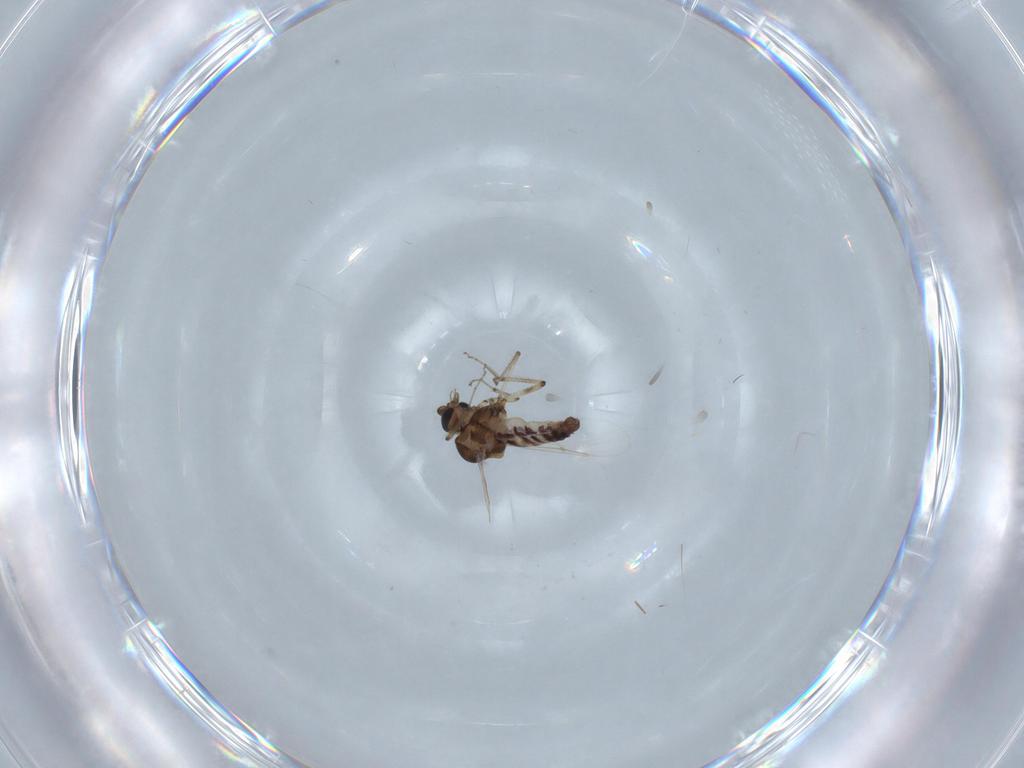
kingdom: Animalia
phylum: Arthropoda
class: Insecta
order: Diptera
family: Ceratopogonidae
